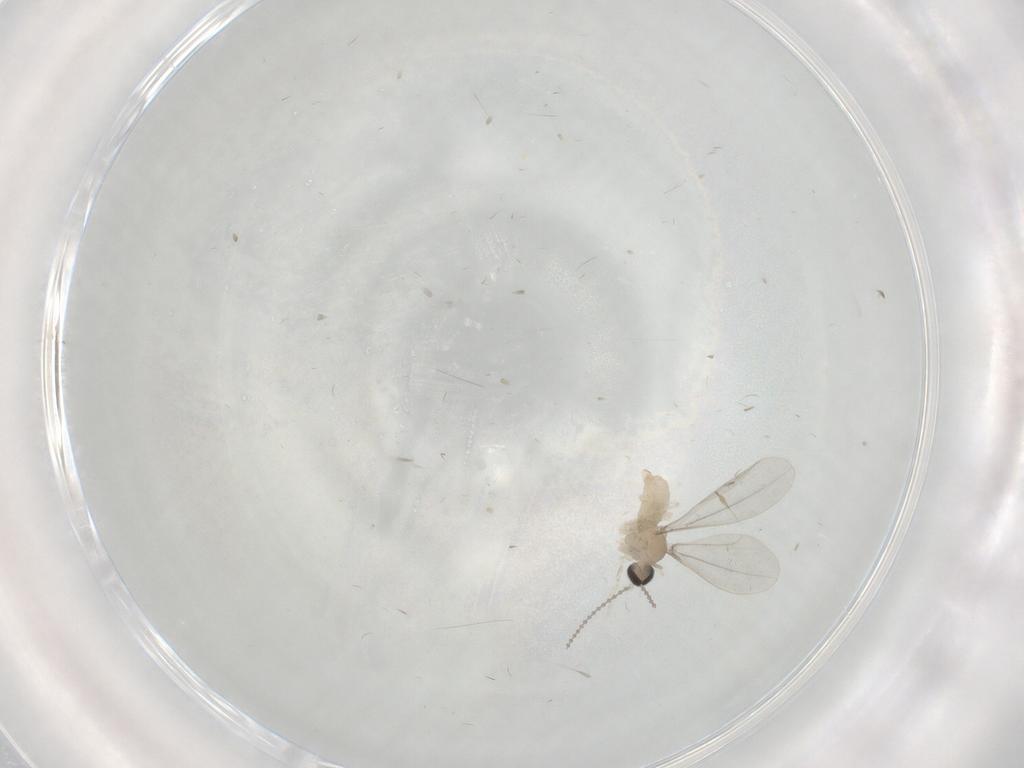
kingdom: Animalia
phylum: Arthropoda
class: Insecta
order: Diptera
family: Cecidomyiidae
